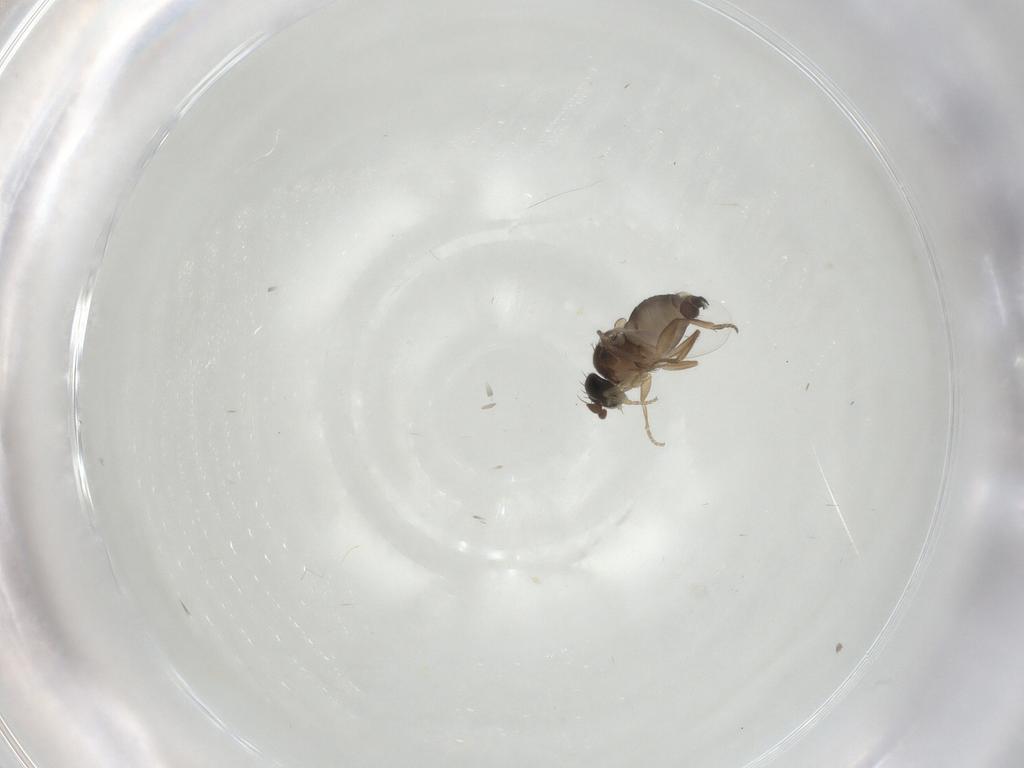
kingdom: Animalia
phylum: Arthropoda
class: Insecta
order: Diptera
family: Phoridae
